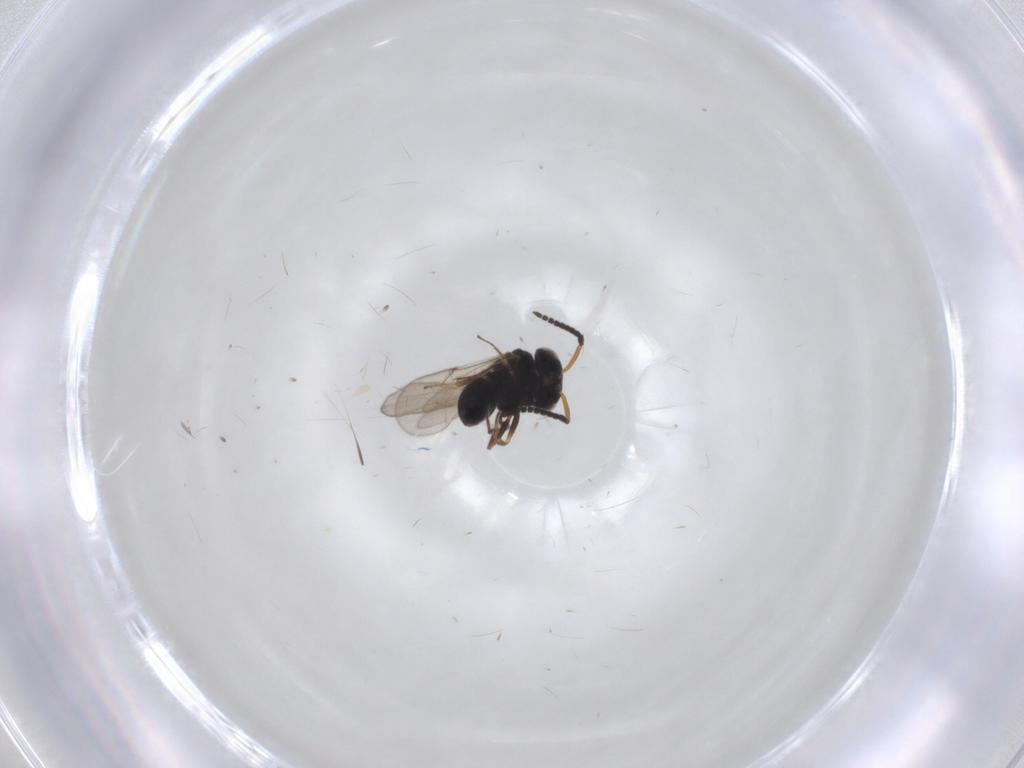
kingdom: Animalia
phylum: Arthropoda
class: Insecta
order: Hymenoptera
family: Scelionidae
